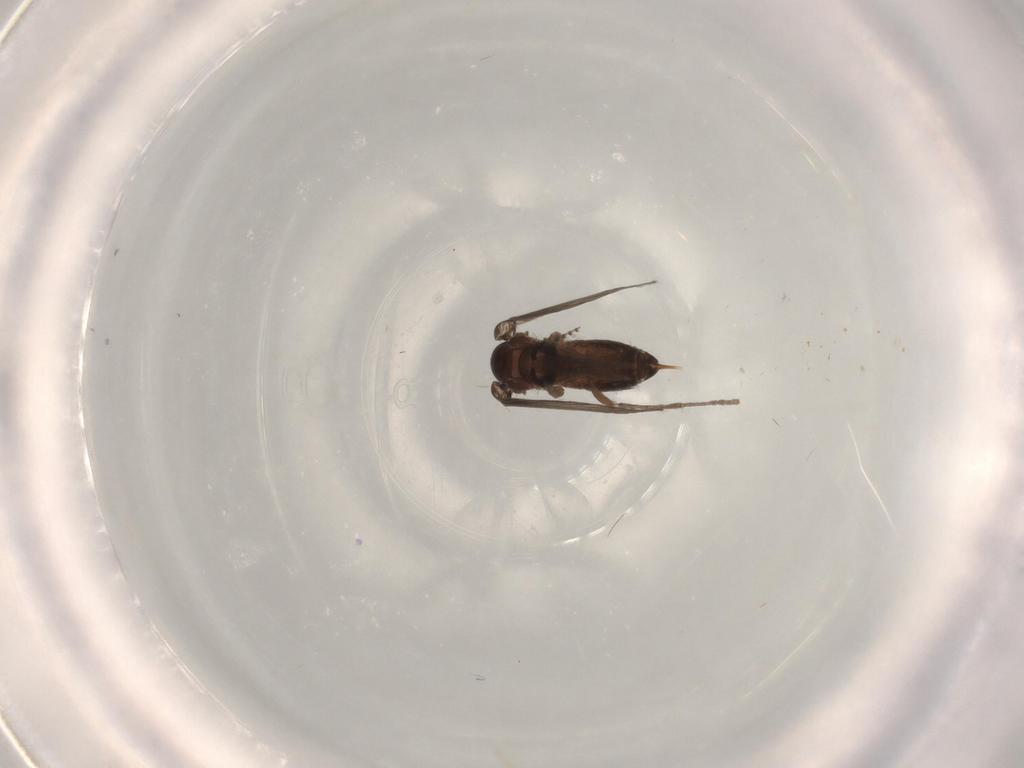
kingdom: Animalia
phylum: Arthropoda
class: Insecta
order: Diptera
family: Psychodidae
